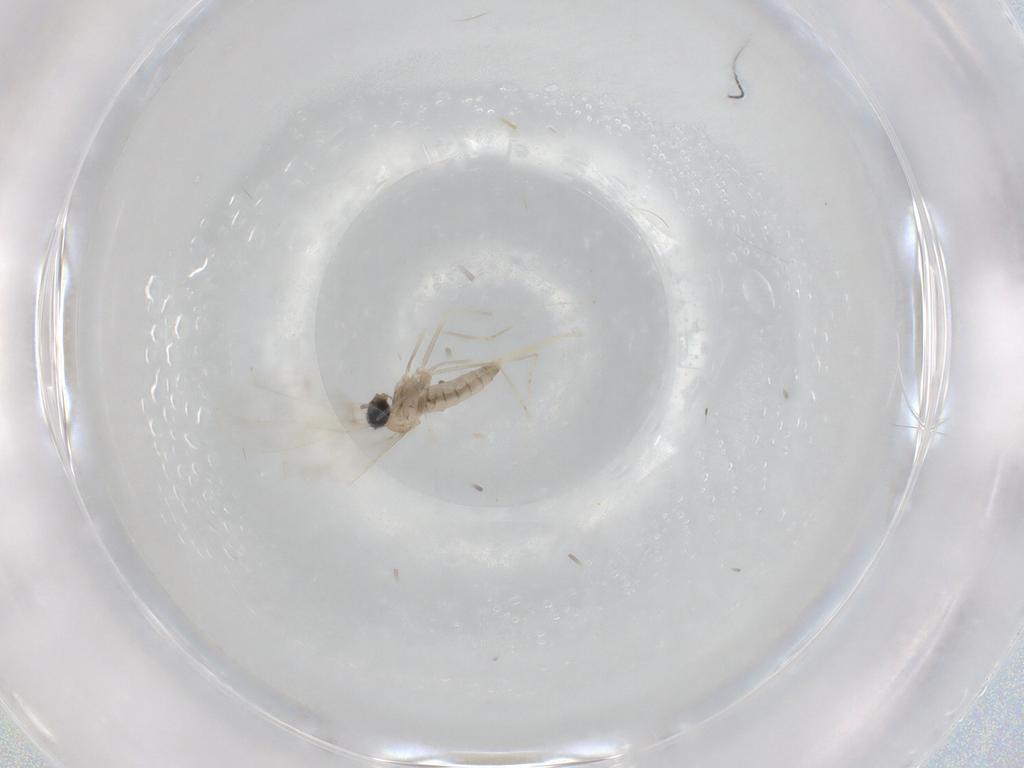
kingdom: Animalia
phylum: Arthropoda
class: Insecta
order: Diptera
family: Cecidomyiidae
